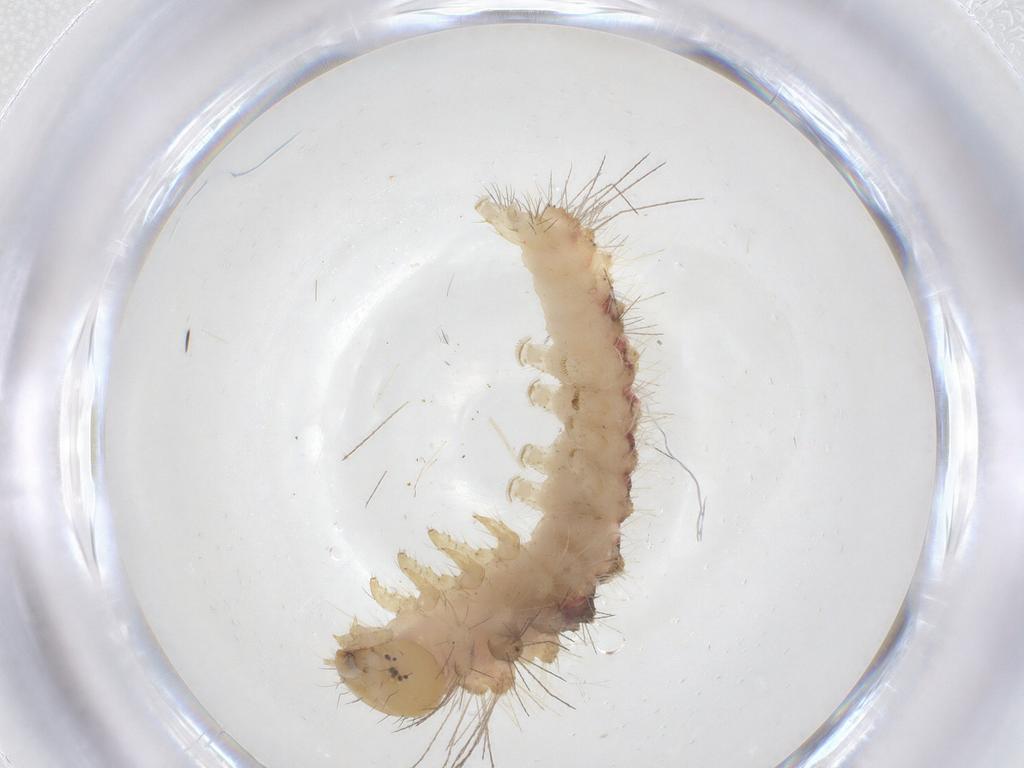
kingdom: Animalia
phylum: Arthropoda
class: Insecta
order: Lepidoptera
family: Erebidae
